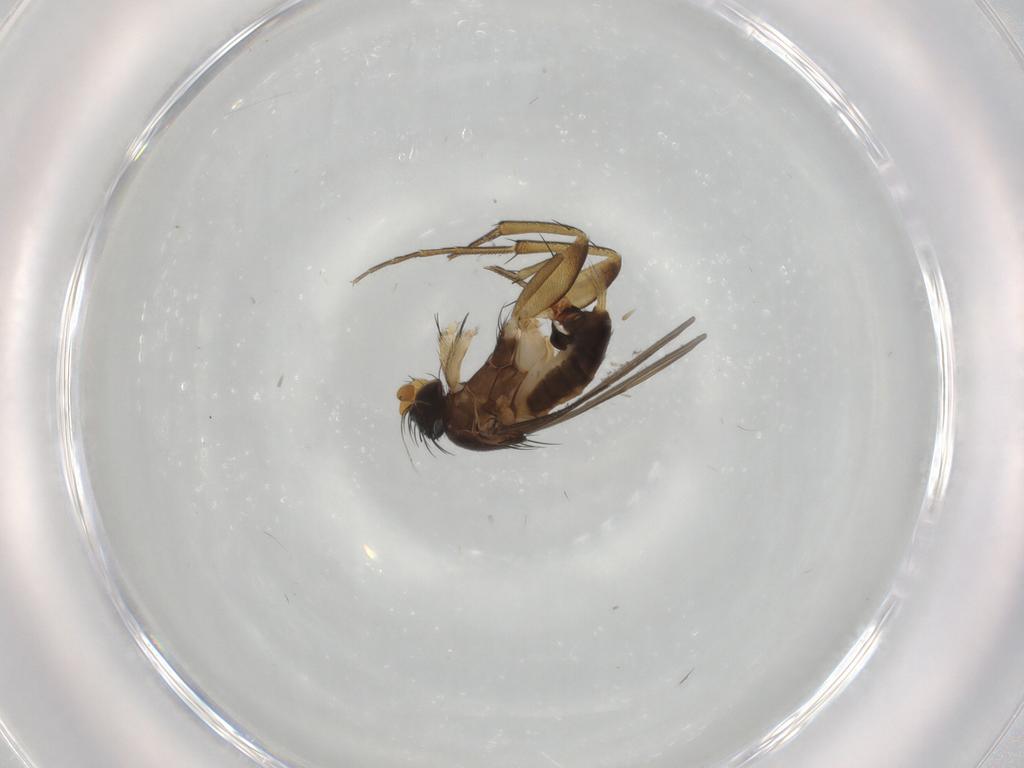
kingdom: Animalia
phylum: Arthropoda
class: Insecta
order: Diptera
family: Phoridae
